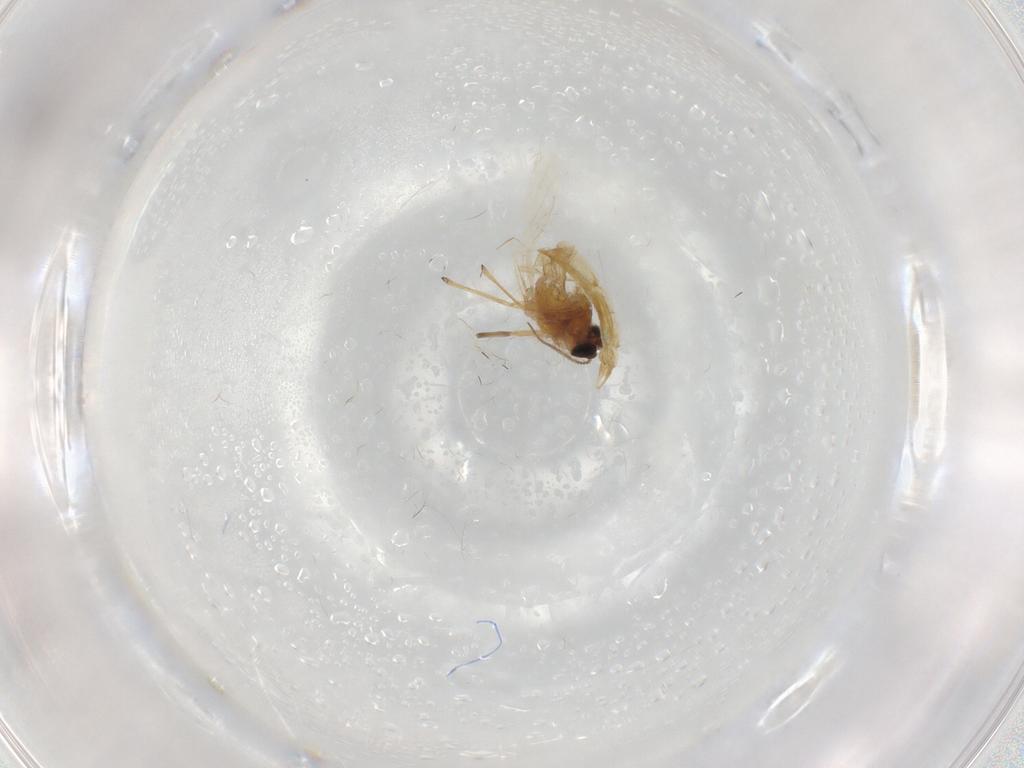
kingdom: Animalia
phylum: Arthropoda
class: Insecta
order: Diptera
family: Chironomidae
